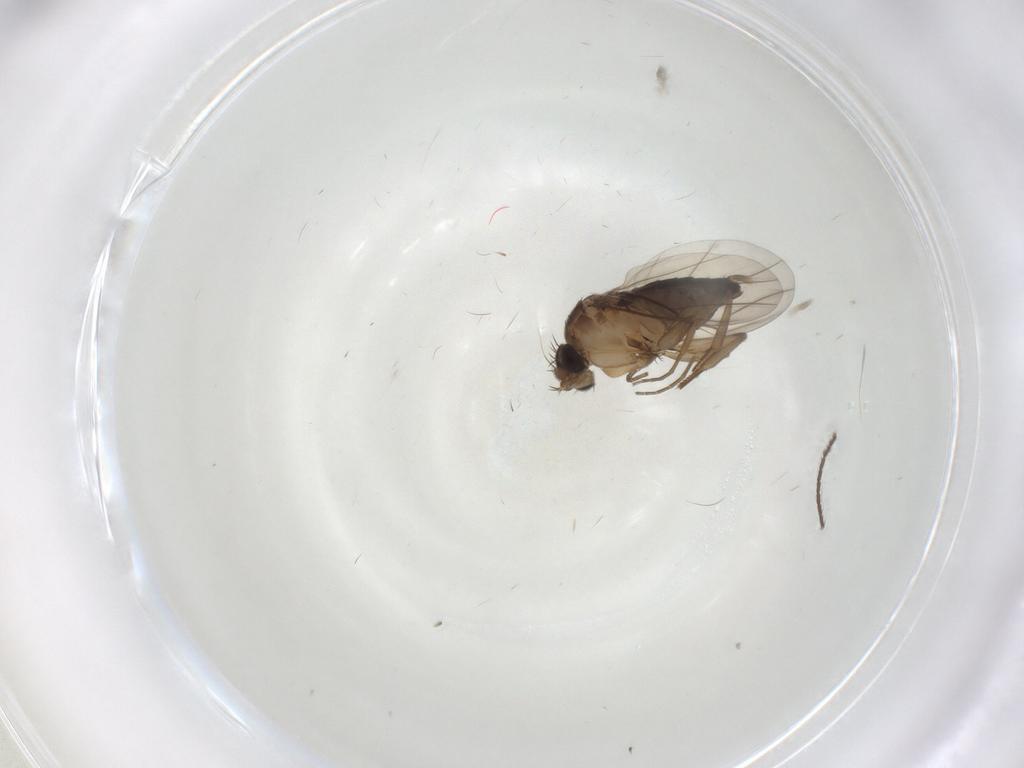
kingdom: Animalia
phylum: Arthropoda
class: Insecta
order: Diptera
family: Phoridae
